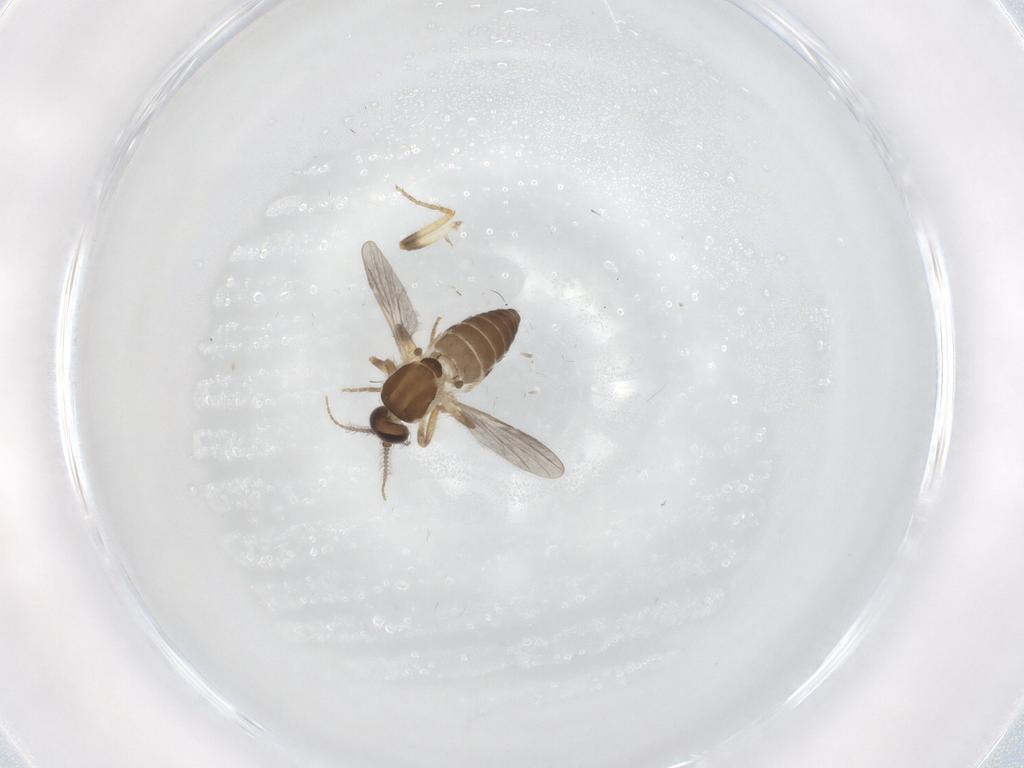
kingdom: Animalia
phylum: Arthropoda
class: Insecta
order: Diptera
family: Ceratopogonidae
